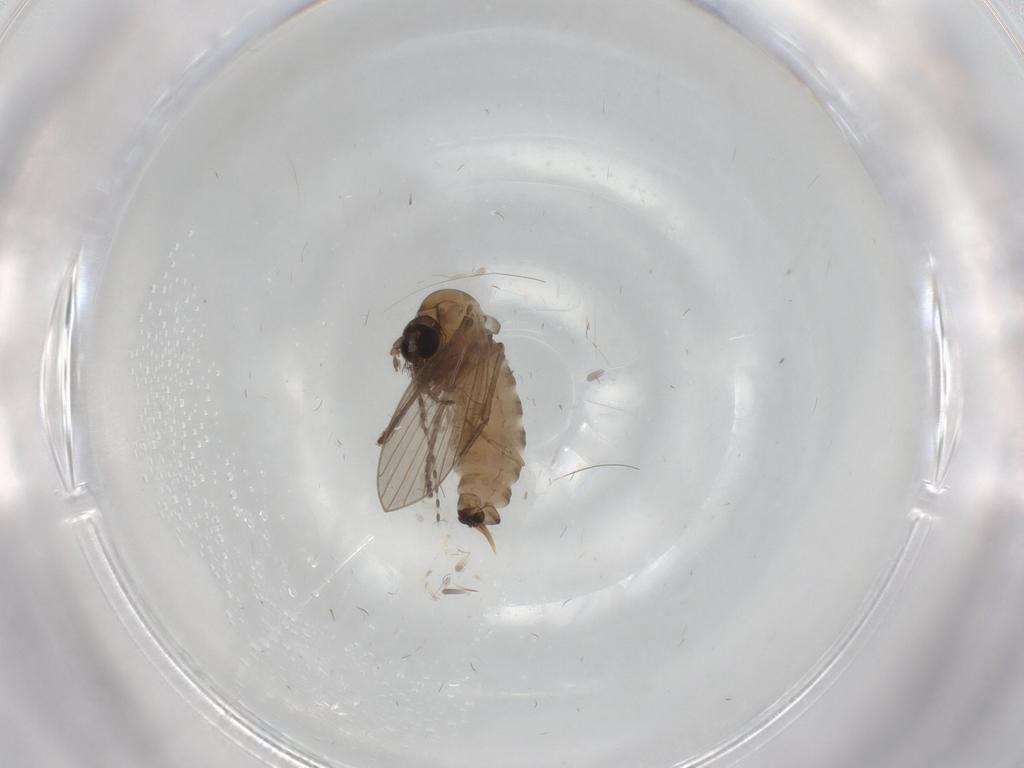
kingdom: Animalia
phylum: Arthropoda
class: Insecta
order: Diptera
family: Psychodidae
